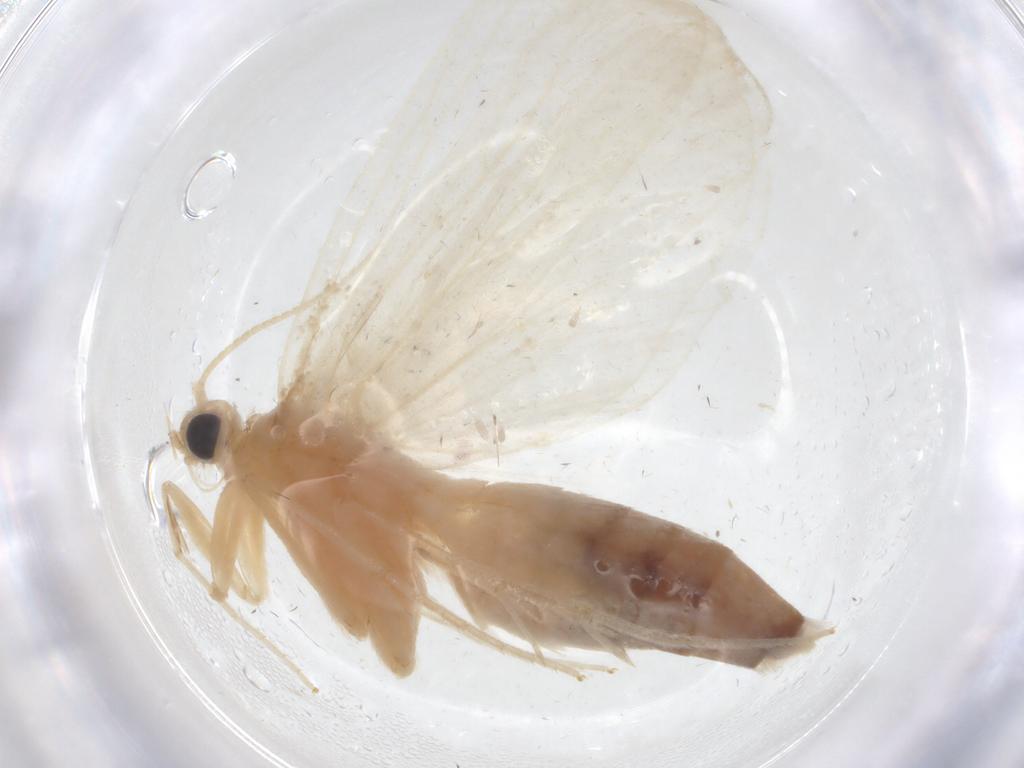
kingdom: Animalia
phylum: Arthropoda
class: Insecta
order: Lepidoptera
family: Crambidae
